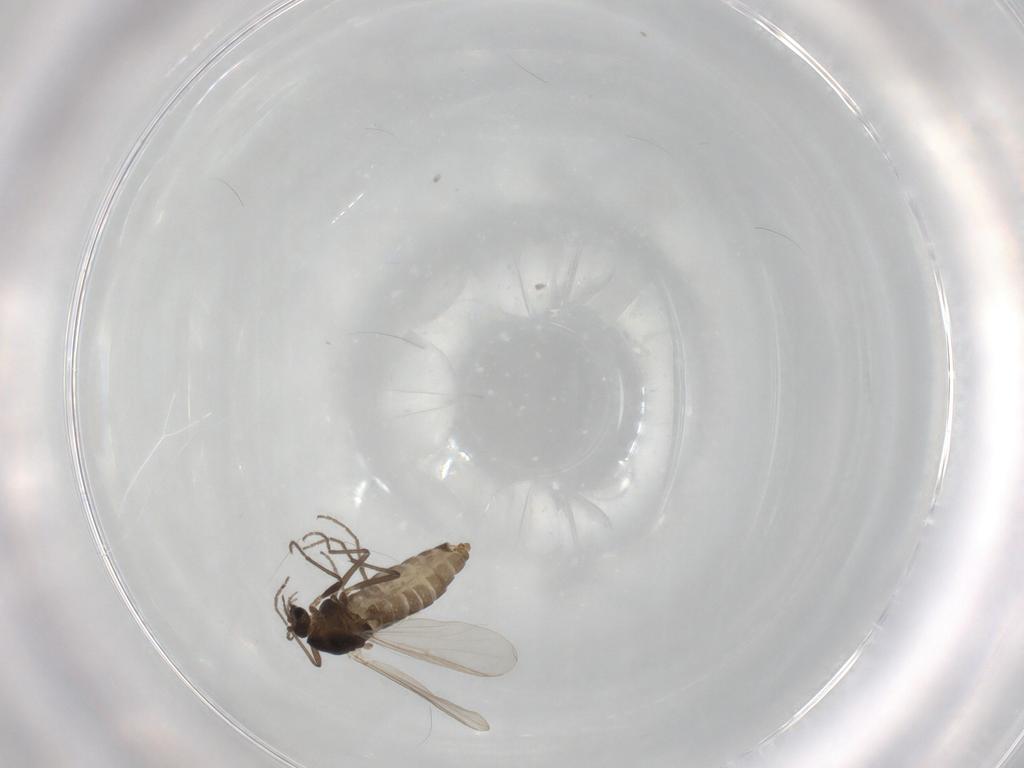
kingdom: Animalia
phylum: Arthropoda
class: Insecta
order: Diptera
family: Chironomidae
